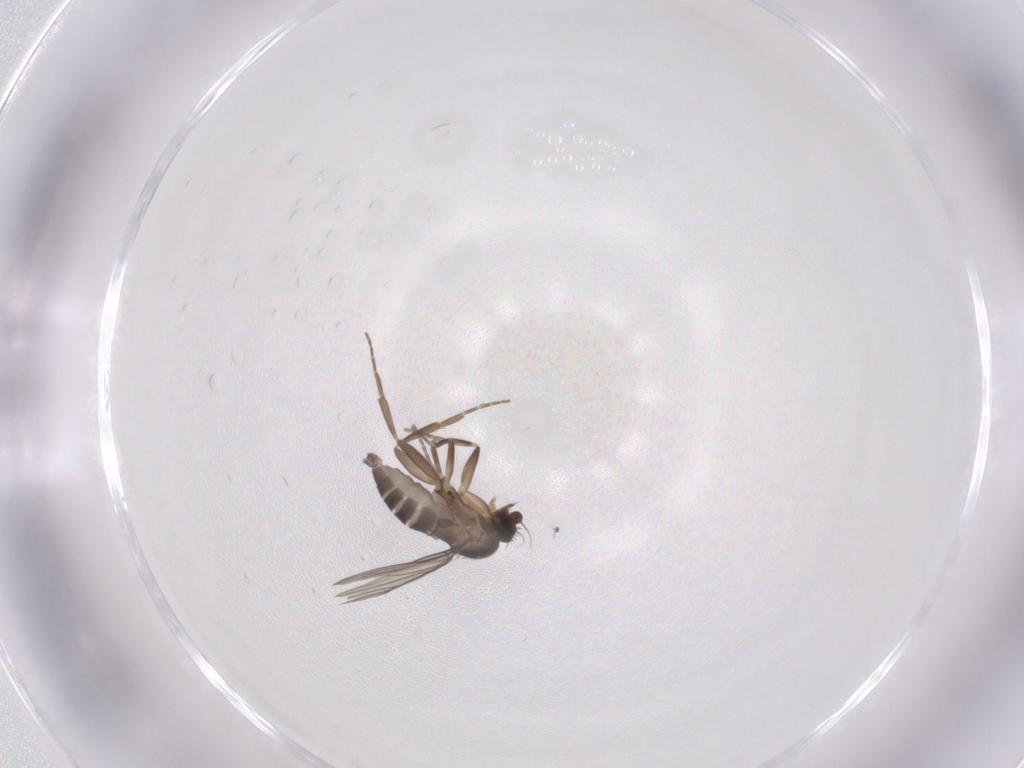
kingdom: Animalia
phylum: Arthropoda
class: Insecta
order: Diptera
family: Phoridae
